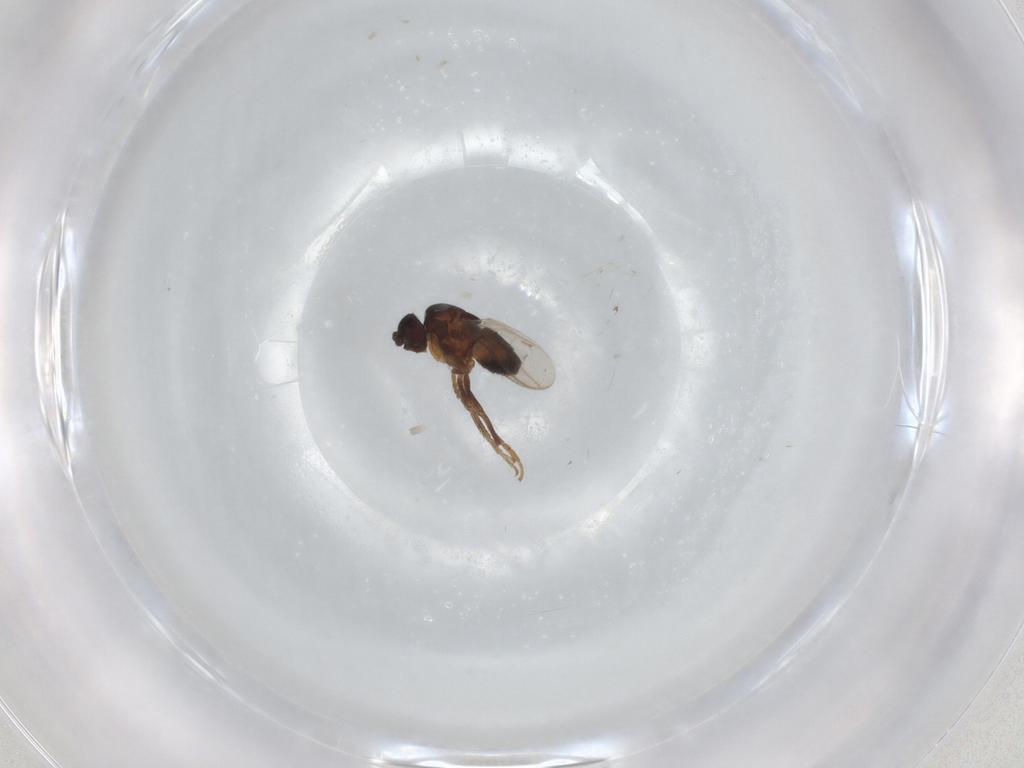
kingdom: Animalia
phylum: Arthropoda
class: Insecta
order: Diptera
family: Sphaeroceridae
